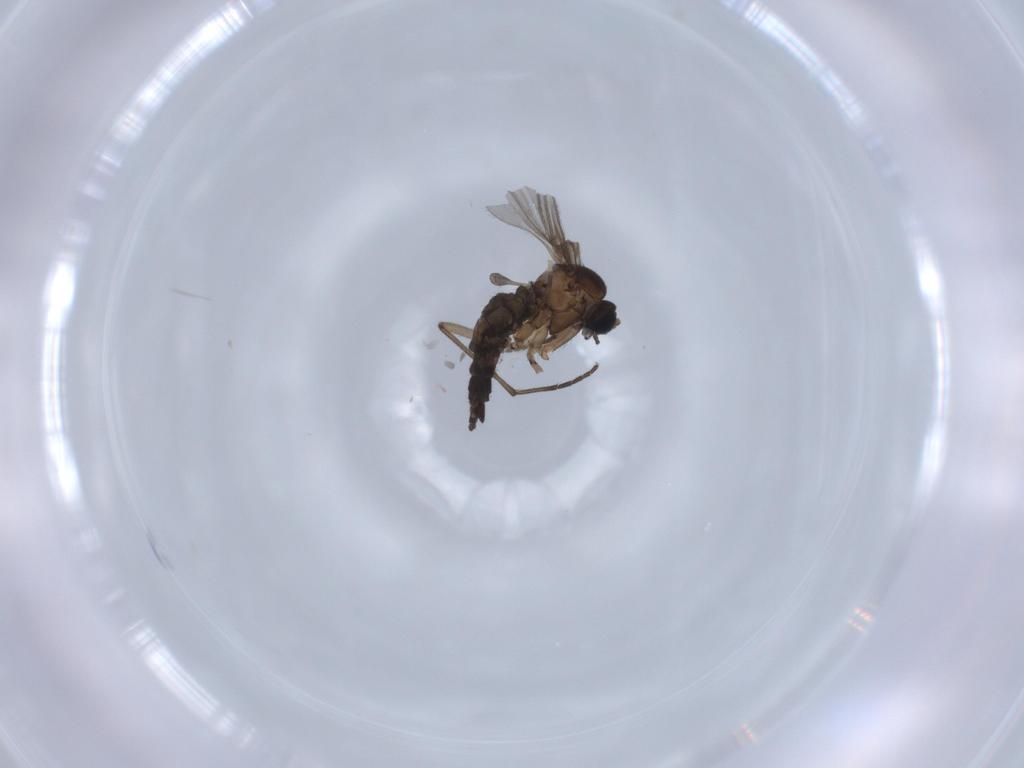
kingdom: Animalia
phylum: Arthropoda
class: Insecta
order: Diptera
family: Sciaridae
